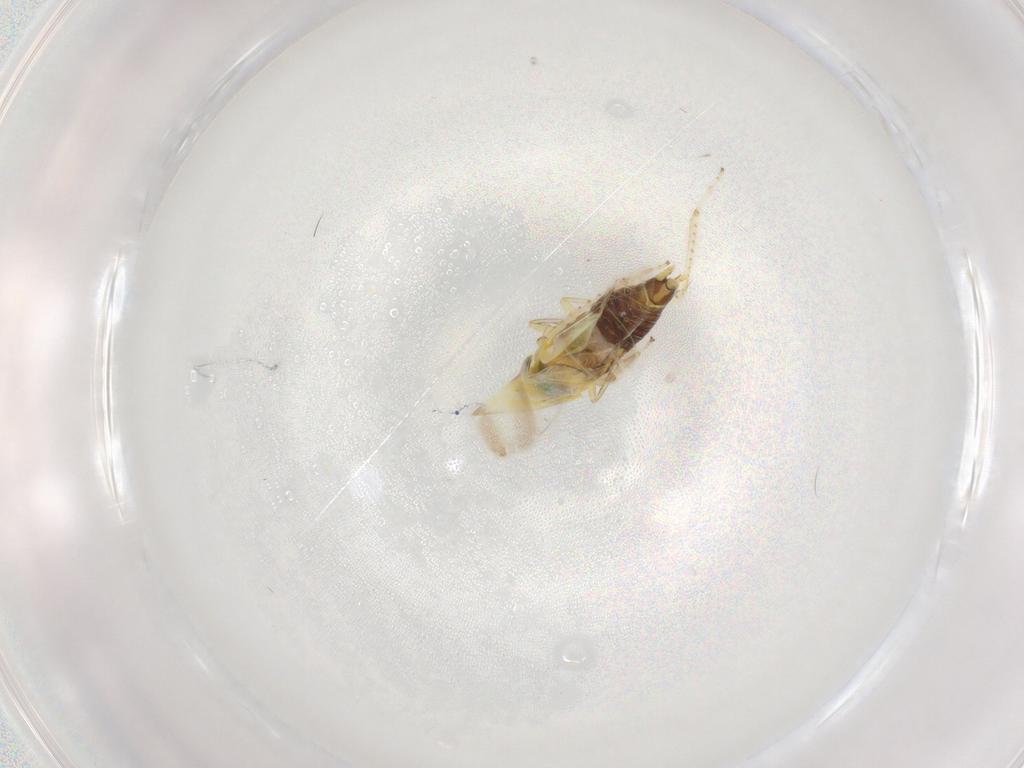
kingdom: Animalia
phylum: Arthropoda
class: Insecta
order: Hemiptera
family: Cicadellidae
